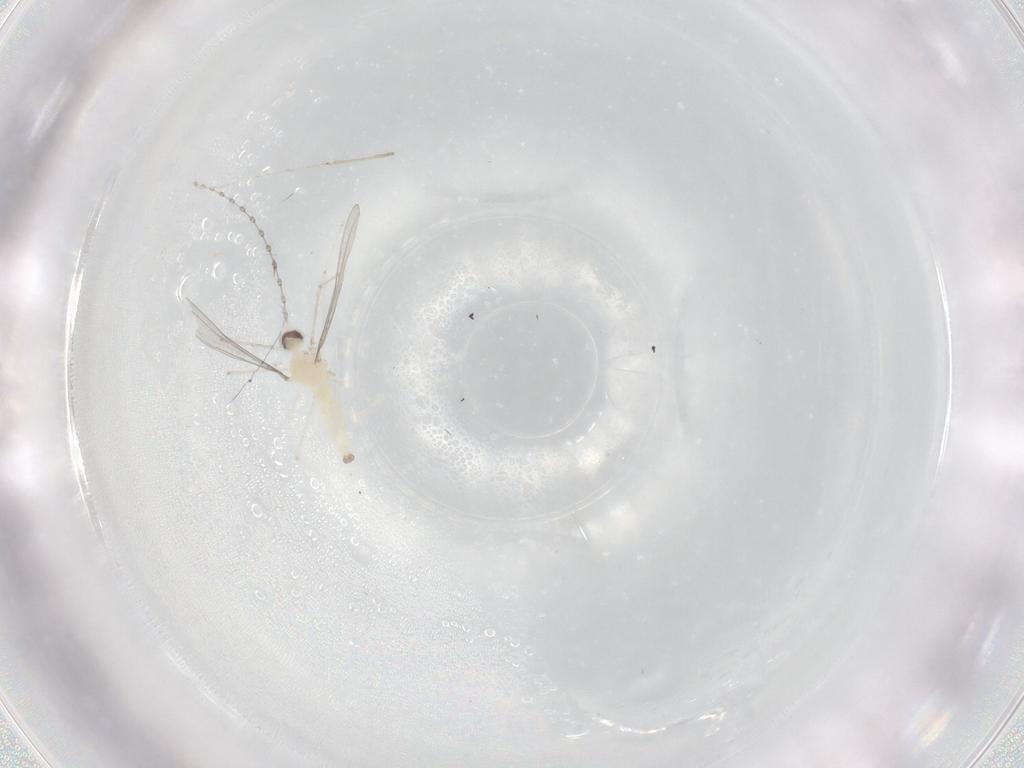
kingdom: Animalia
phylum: Arthropoda
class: Insecta
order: Diptera
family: Cecidomyiidae
